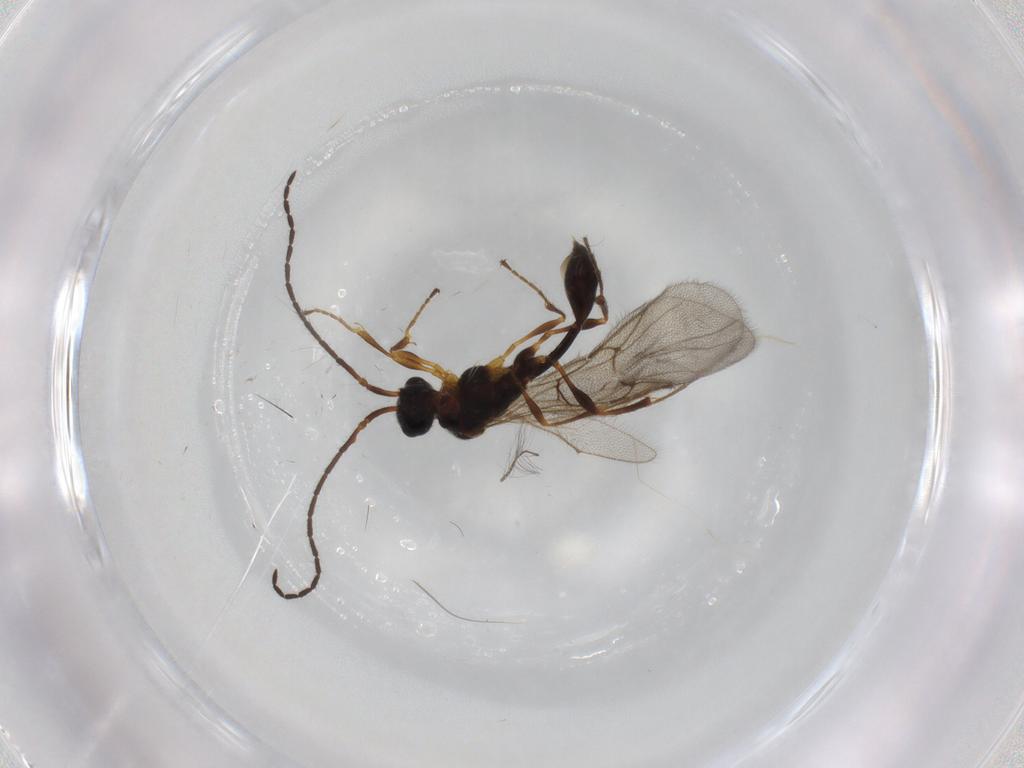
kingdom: Animalia
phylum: Arthropoda
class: Insecta
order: Hymenoptera
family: Diapriidae
